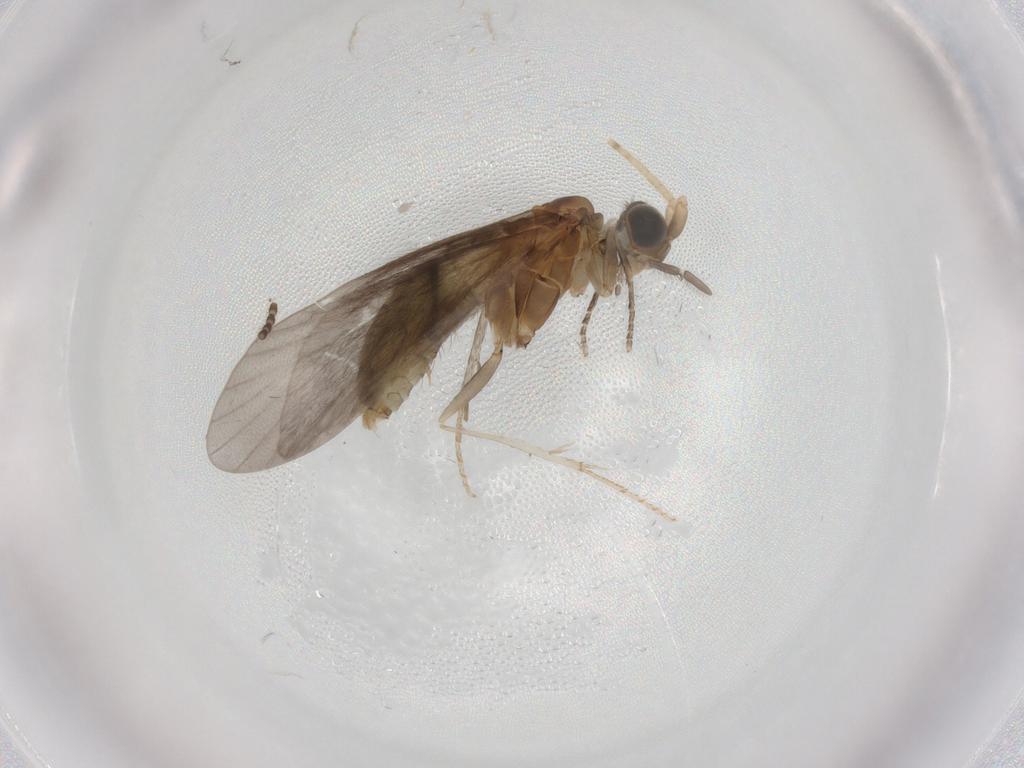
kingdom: Animalia
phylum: Arthropoda
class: Insecta
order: Trichoptera
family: Helicopsychidae
